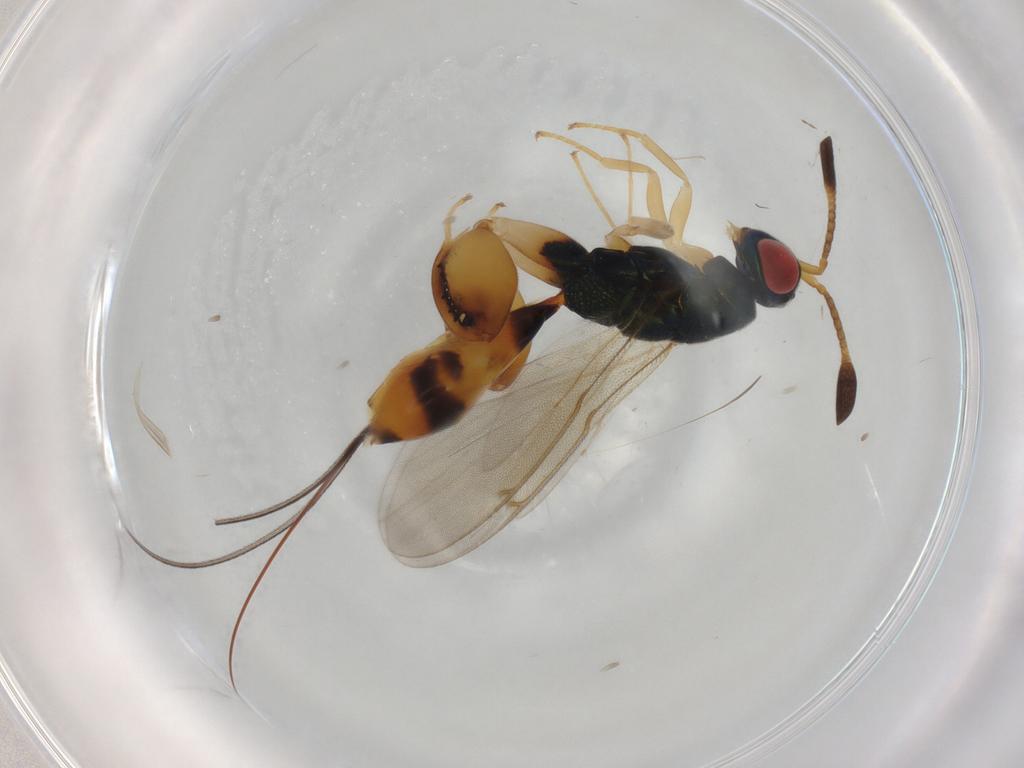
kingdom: Animalia
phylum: Arthropoda
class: Insecta
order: Hymenoptera
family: Torymidae
